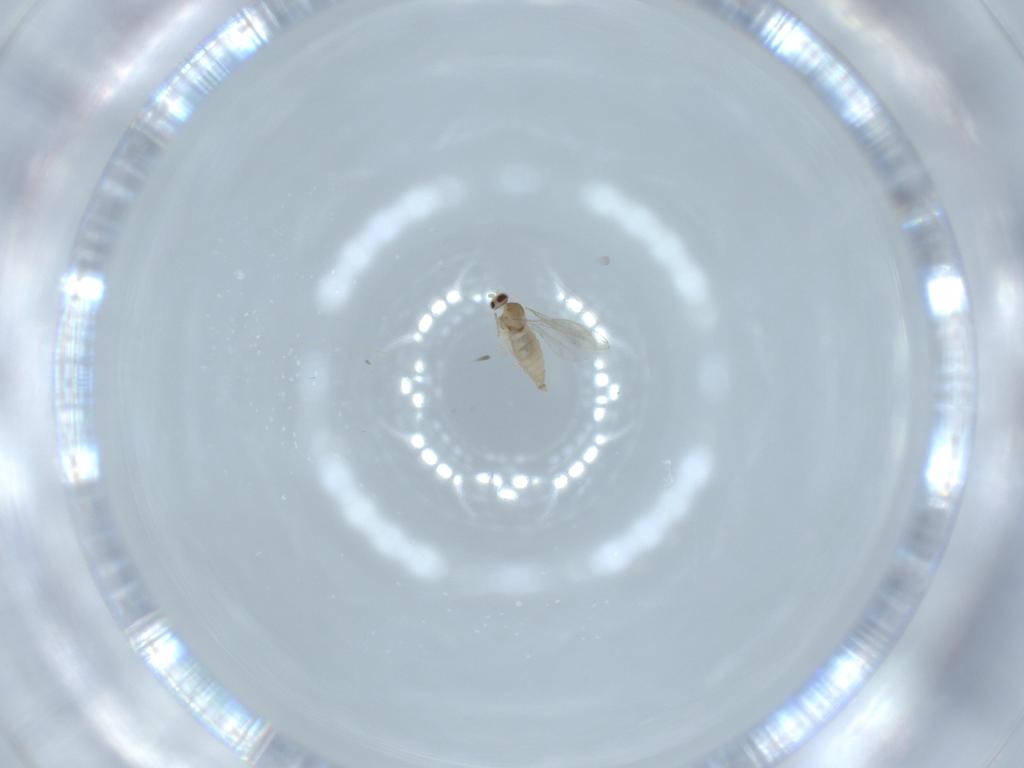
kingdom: Animalia
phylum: Arthropoda
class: Insecta
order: Diptera
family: Cecidomyiidae
